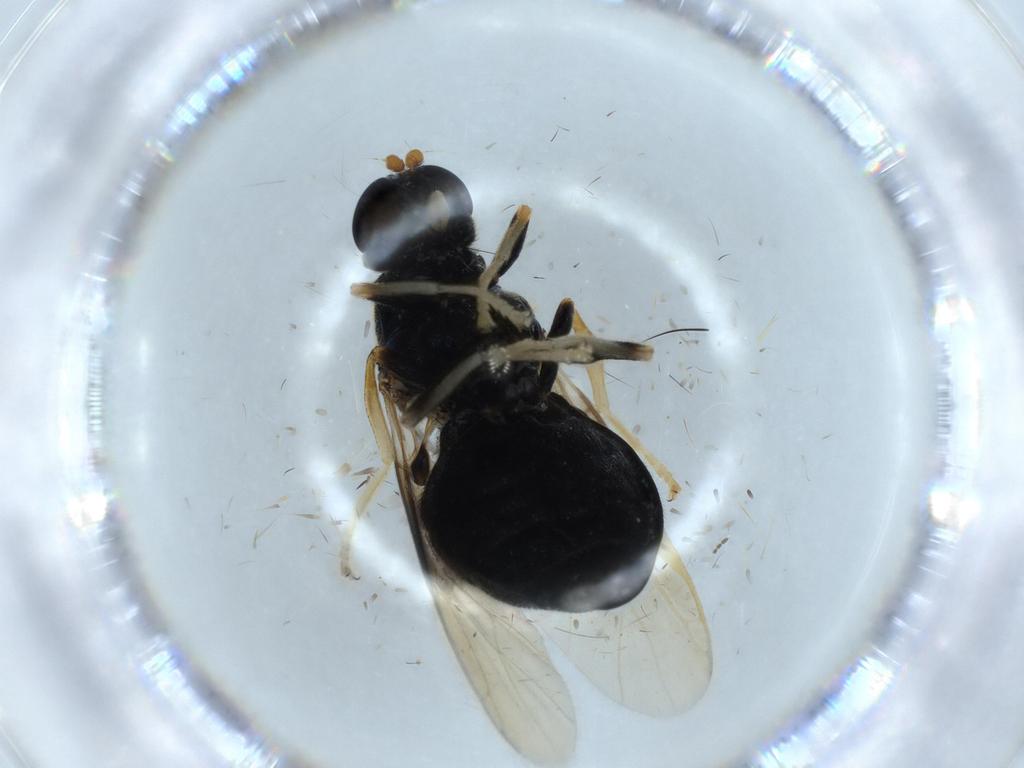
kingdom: Animalia
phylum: Arthropoda
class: Insecta
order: Diptera
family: Stratiomyidae
